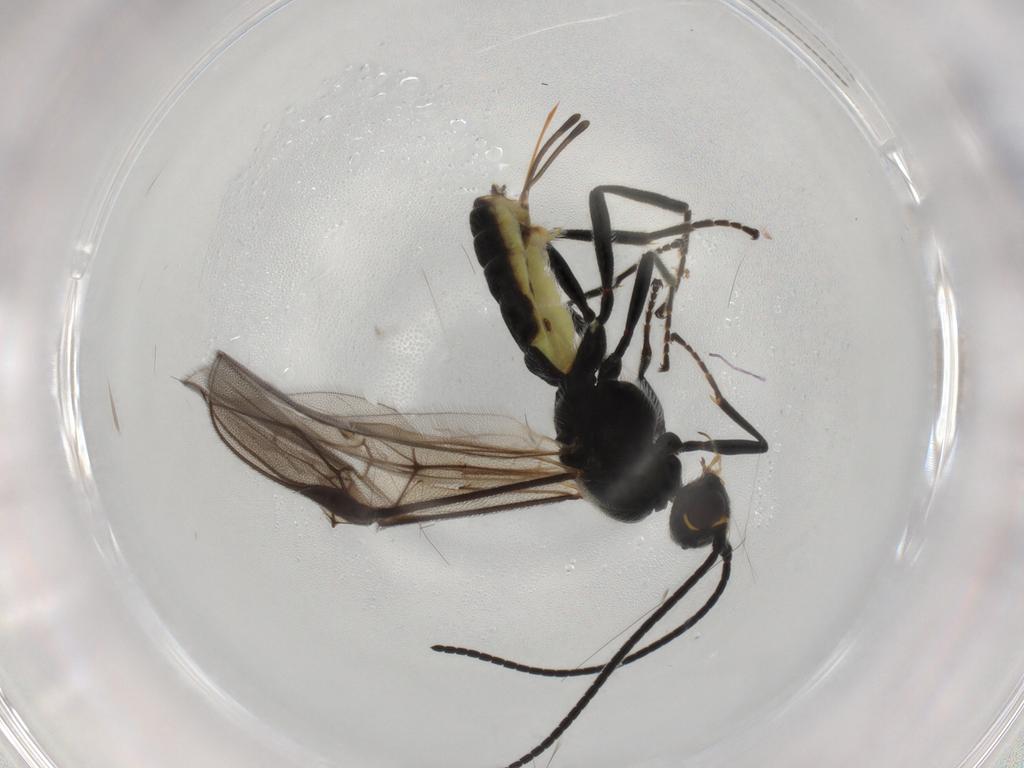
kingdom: Animalia
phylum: Arthropoda
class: Insecta
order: Hymenoptera
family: Braconidae
